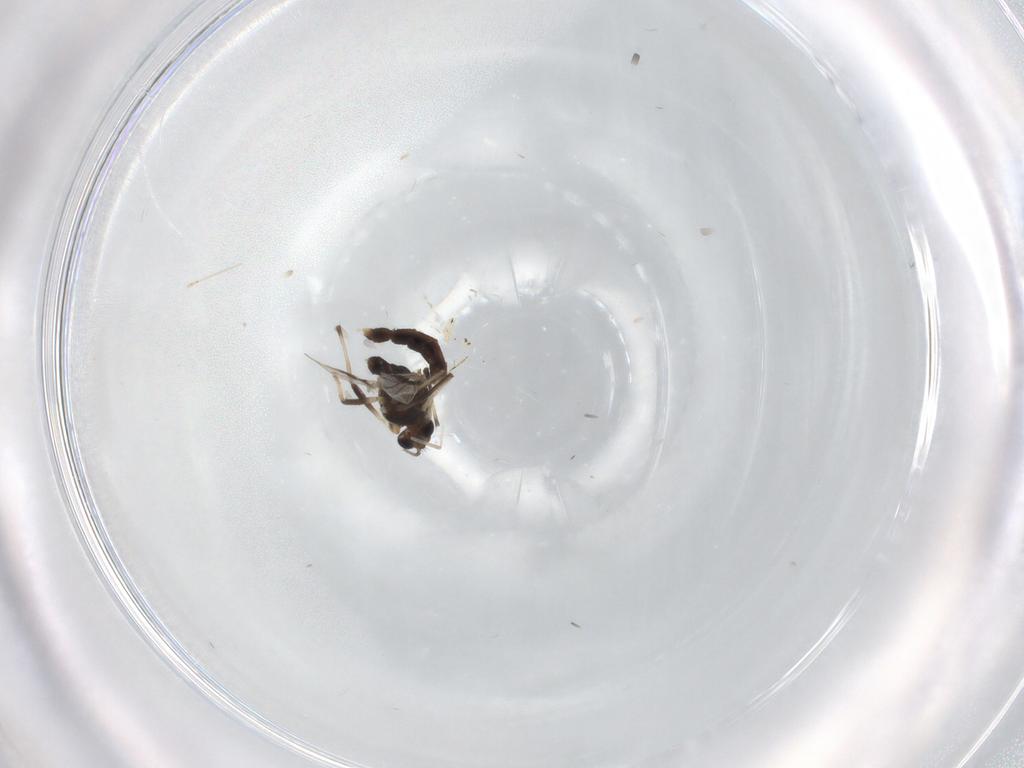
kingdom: Animalia
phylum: Arthropoda
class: Insecta
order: Diptera
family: Chironomidae
